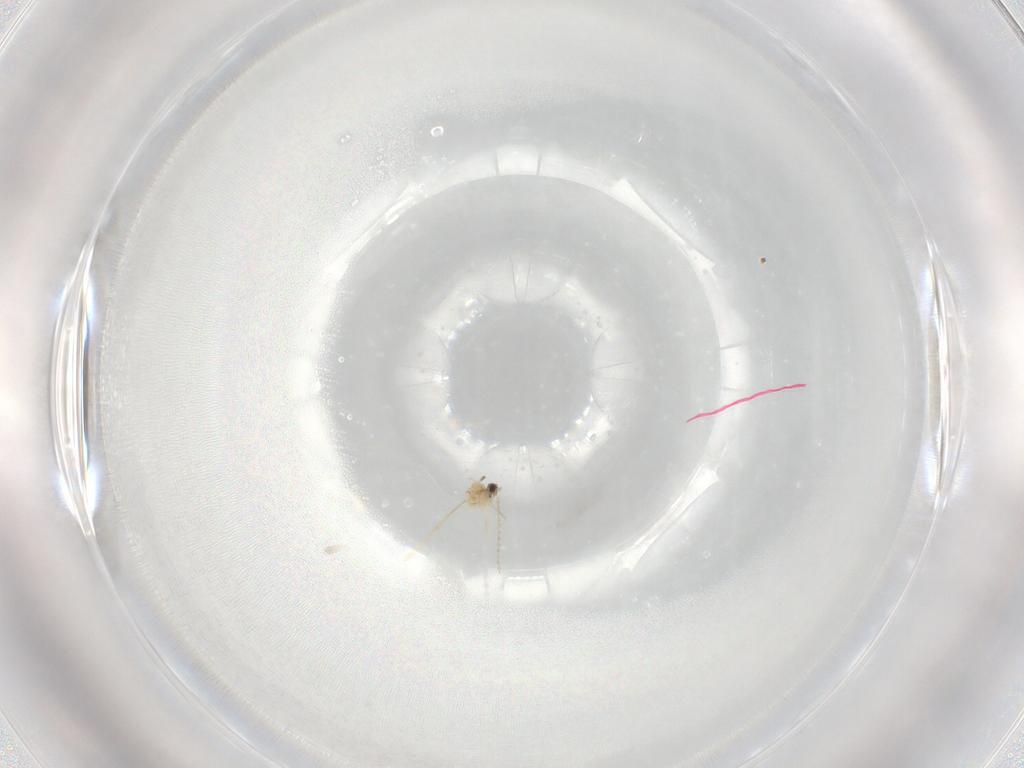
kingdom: Animalia
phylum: Arthropoda
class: Insecta
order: Diptera
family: Cecidomyiidae
